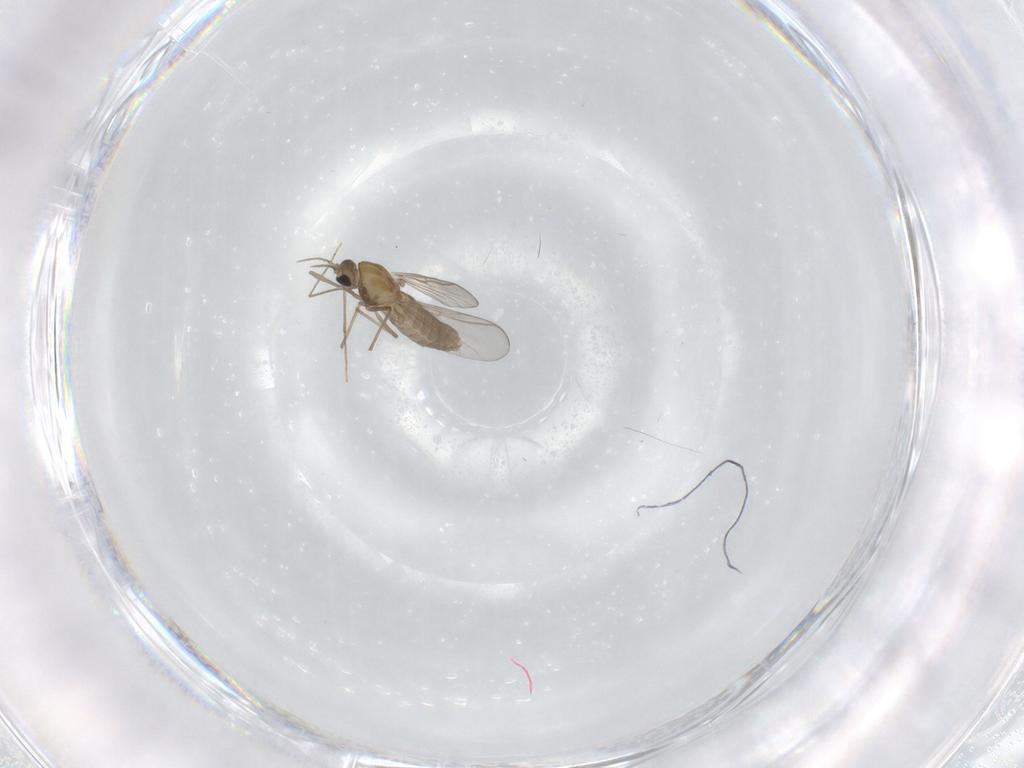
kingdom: Animalia
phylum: Arthropoda
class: Insecta
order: Diptera
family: Chironomidae
